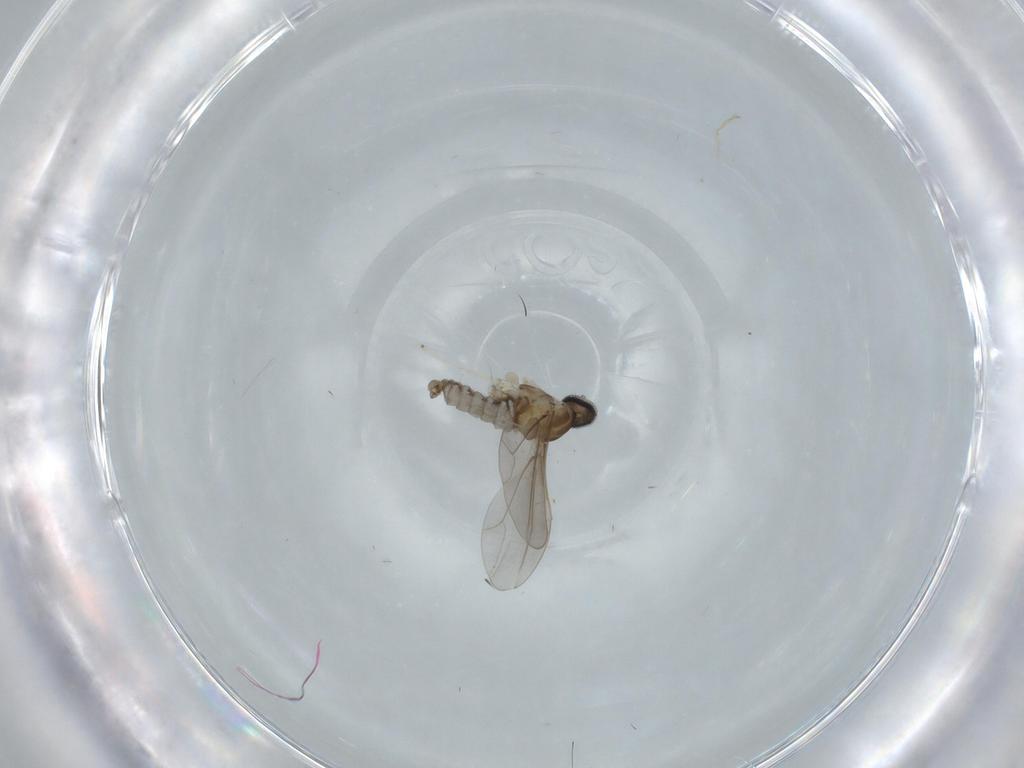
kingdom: Animalia
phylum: Arthropoda
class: Insecta
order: Diptera
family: Cecidomyiidae
